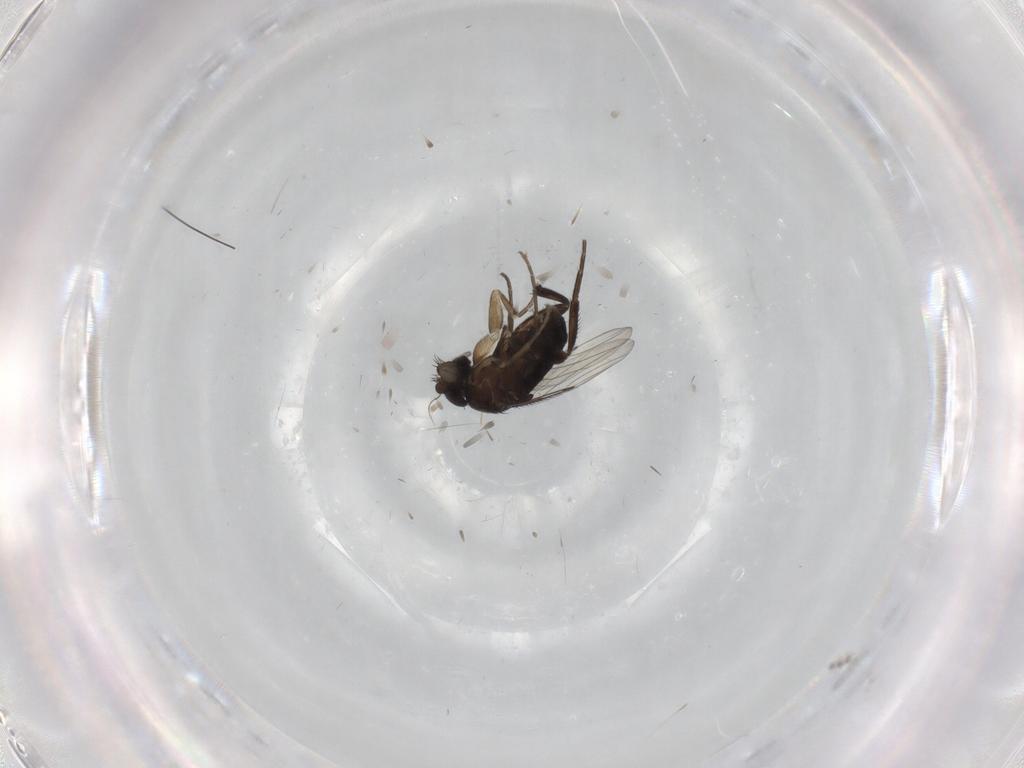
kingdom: Animalia
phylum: Arthropoda
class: Insecta
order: Diptera
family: Phoridae
